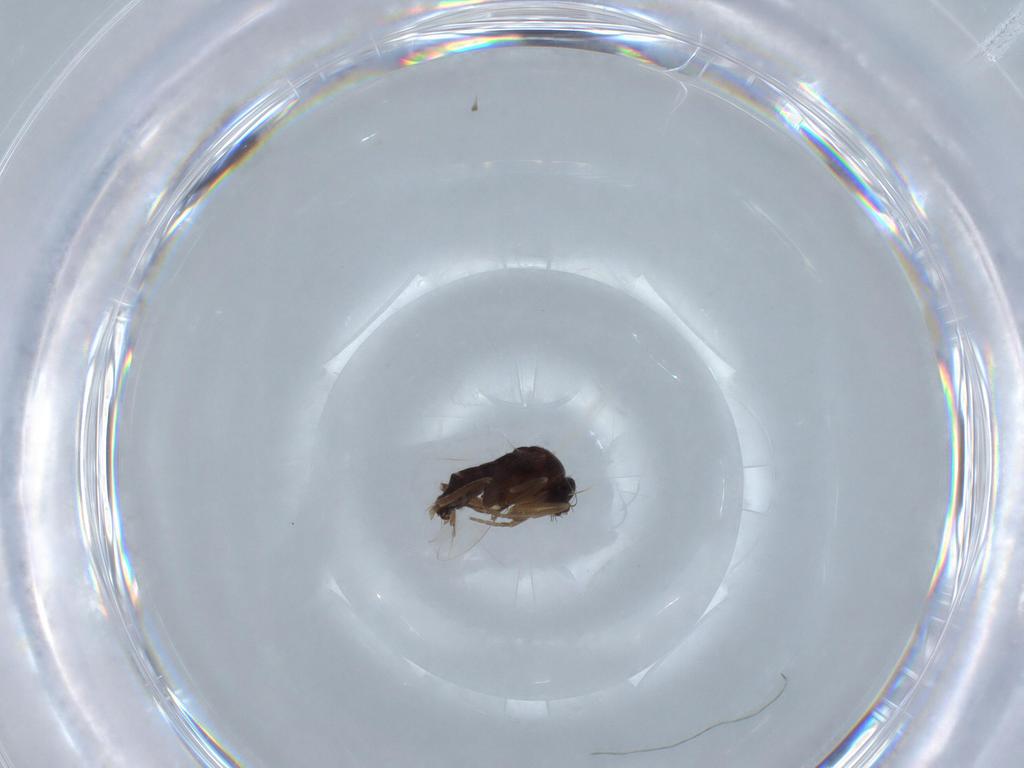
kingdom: Animalia
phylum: Arthropoda
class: Insecta
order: Diptera
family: Phoridae
